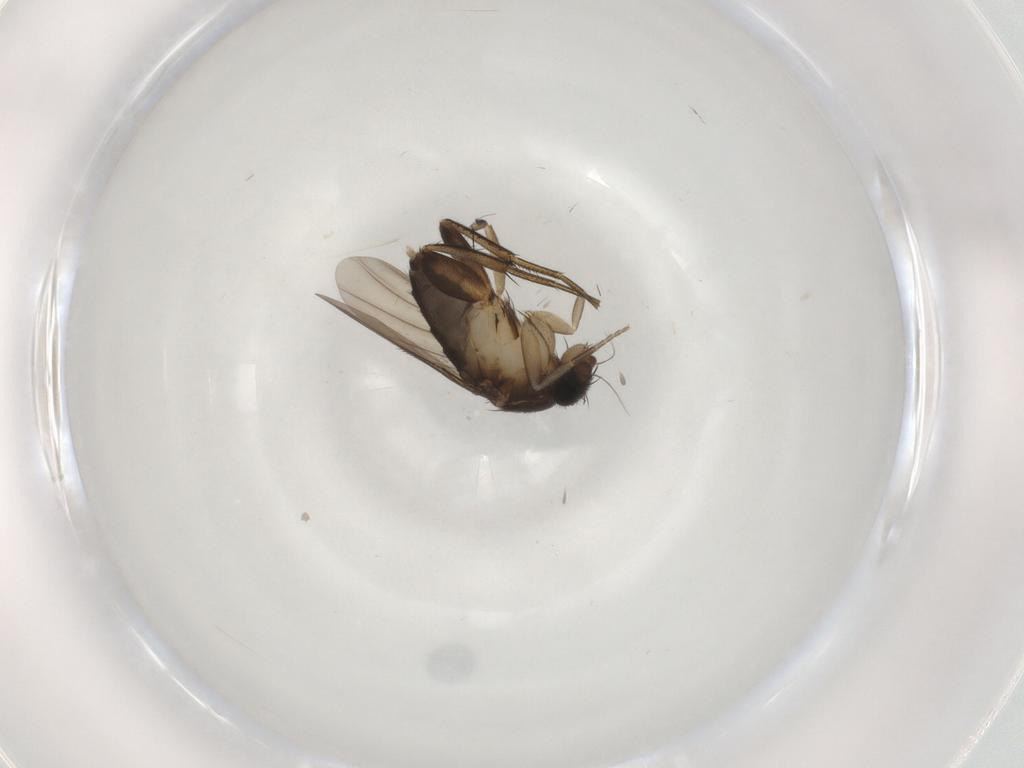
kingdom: Animalia
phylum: Arthropoda
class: Insecta
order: Diptera
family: Phoridae
